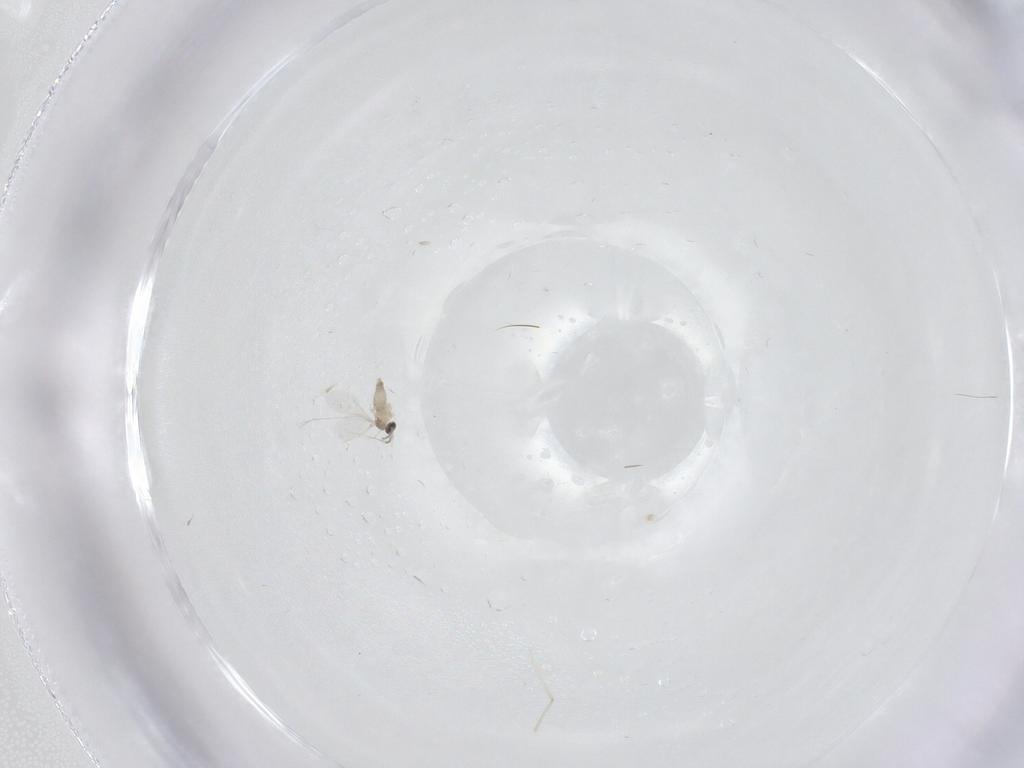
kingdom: Animalia
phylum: Arthropoda
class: Insecta
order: Diptera
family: Cecidomyiidae
